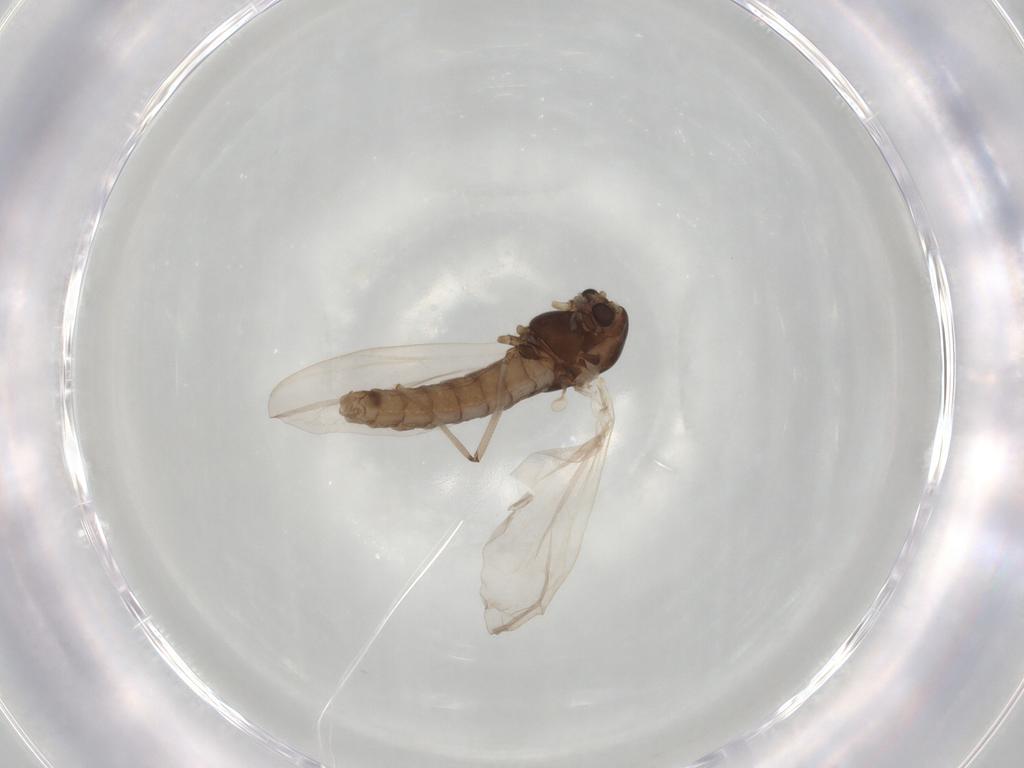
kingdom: Animalia
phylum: Arthropoda
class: Insecta
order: Diptera
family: Chironomidae
